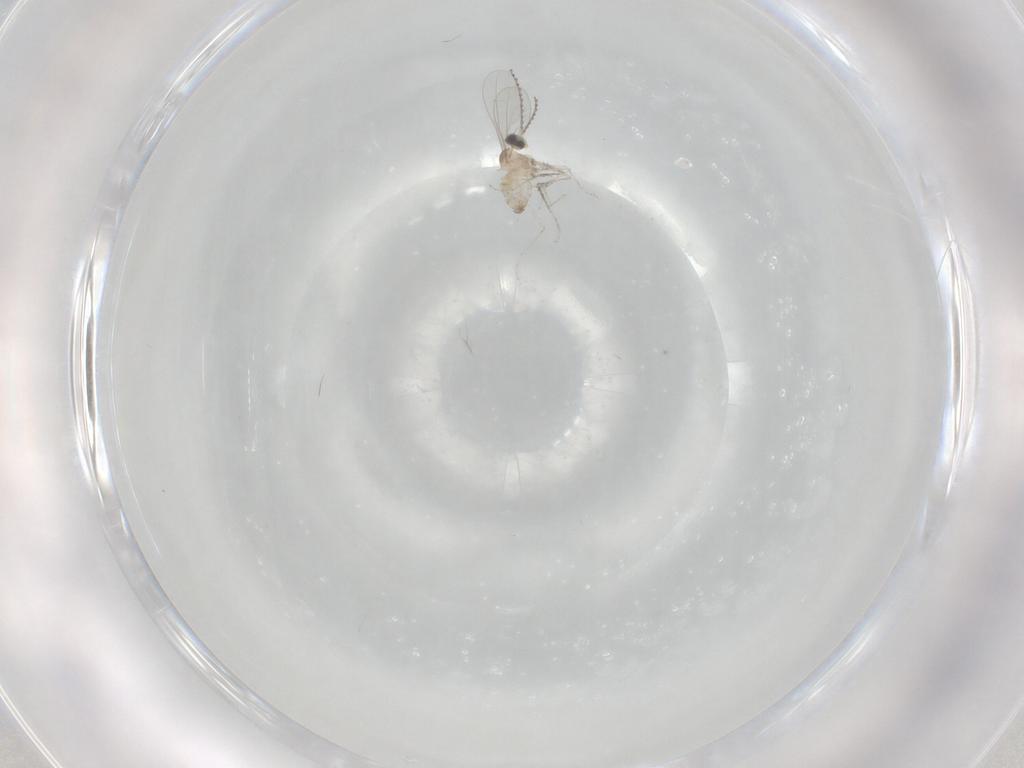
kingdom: Animalia
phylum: Arthropoda
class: Insecta
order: Diptera
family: Cecidomyiidae
